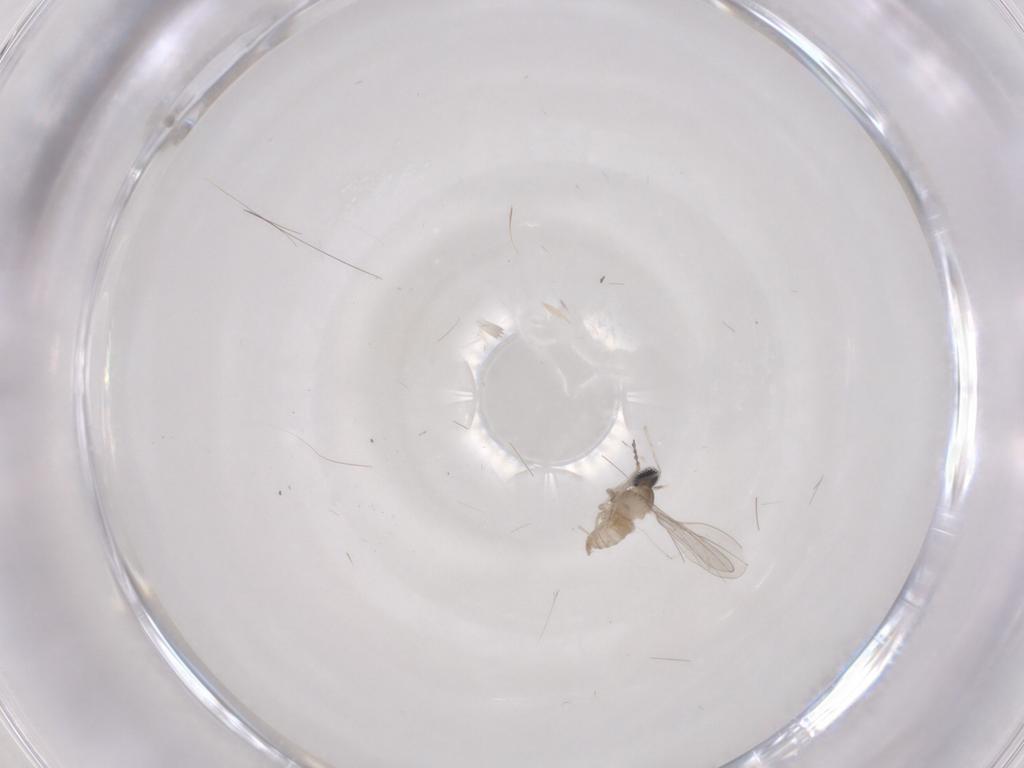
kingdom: Animalia
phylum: Arthropoda
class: Insecta
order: Diptera
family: Cecidomyiidae
